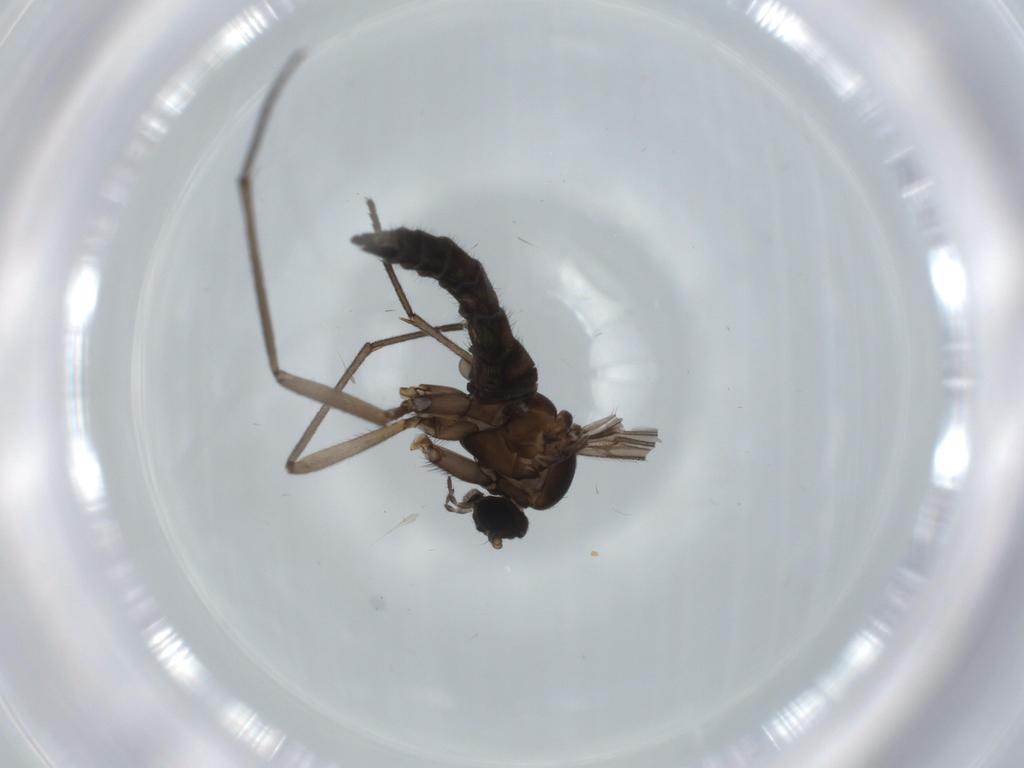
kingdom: Animalia
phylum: Arthropoda
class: Insecta
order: Diptera
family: Sciaridae
